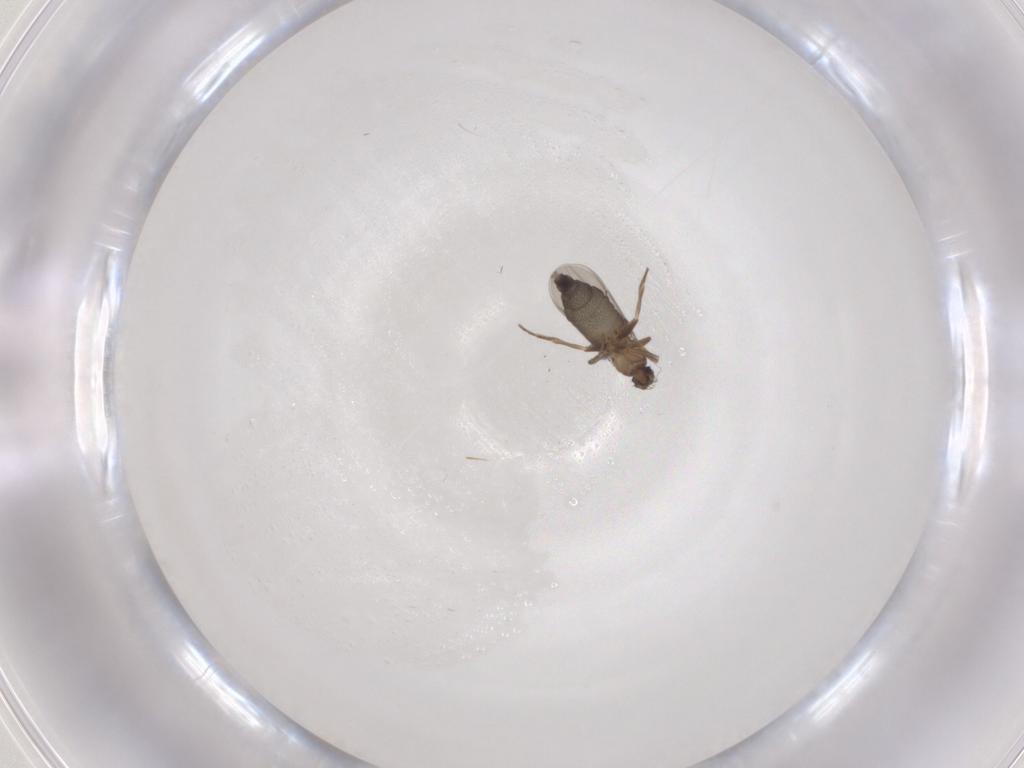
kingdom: Animalia
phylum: Arthropoda
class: Insecta
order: Diptera
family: Phoridae
